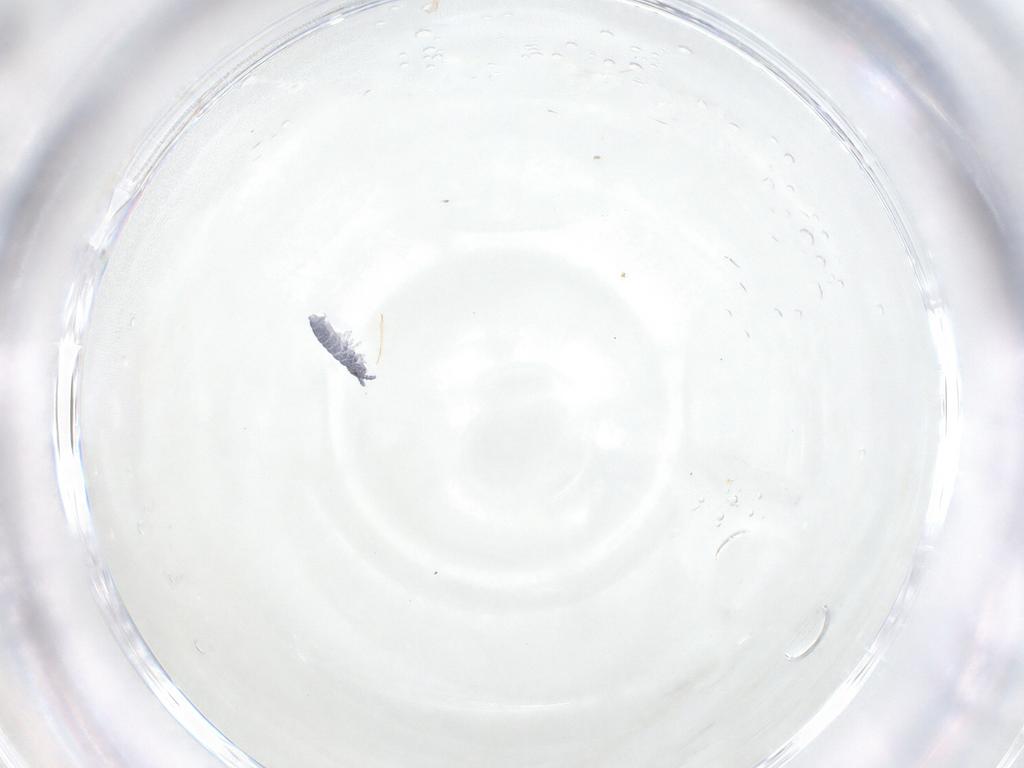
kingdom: Animalia
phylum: Arthropoda
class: Collembola
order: Poduromorpha
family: Hypogastruridae
